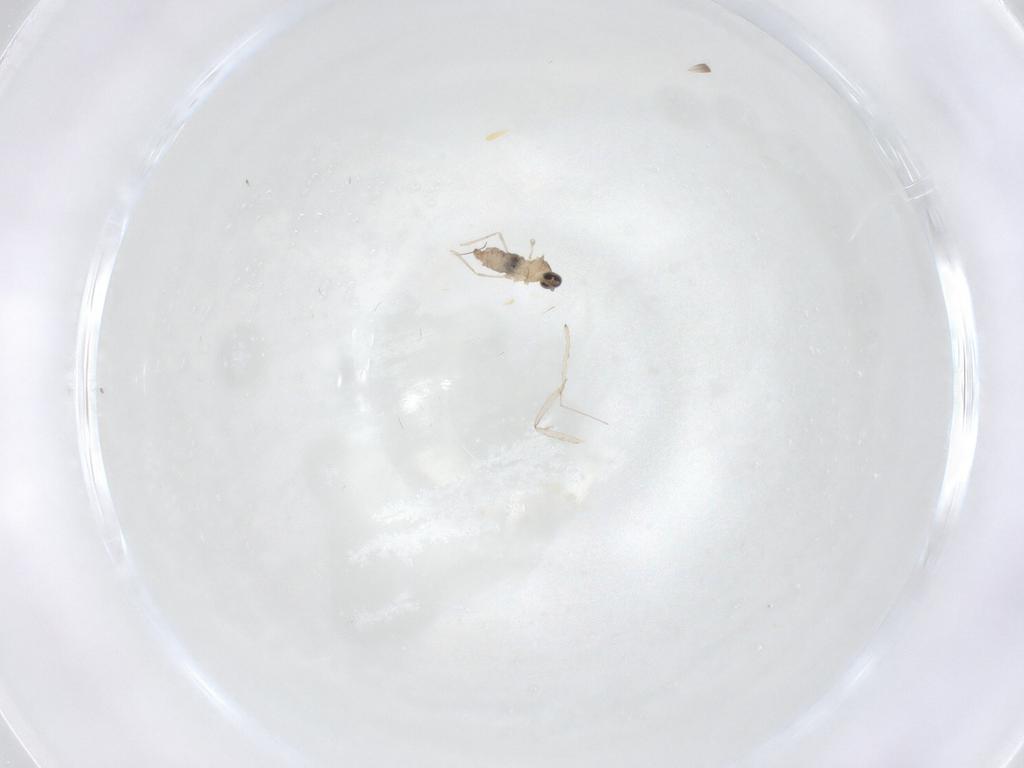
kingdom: Animalia
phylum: Arthropoda
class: Insecta
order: Diptera
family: Cecidomyiidae
